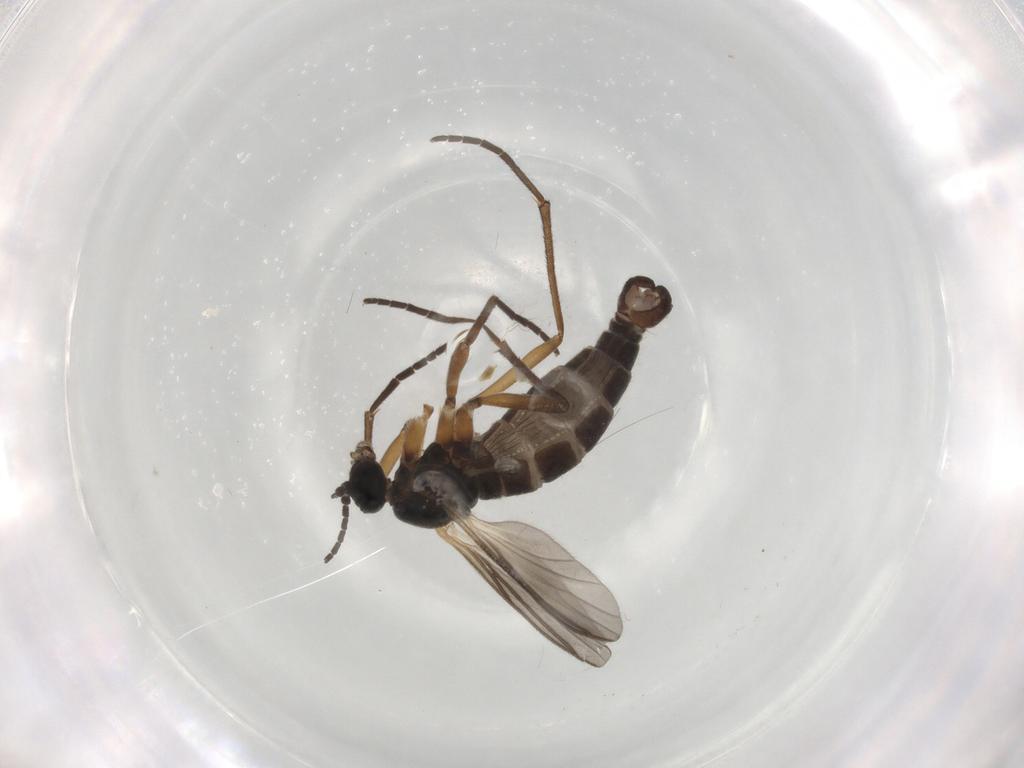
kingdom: Animalia
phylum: Arthropoda
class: Insecta
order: Diptera
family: Sciaridae
